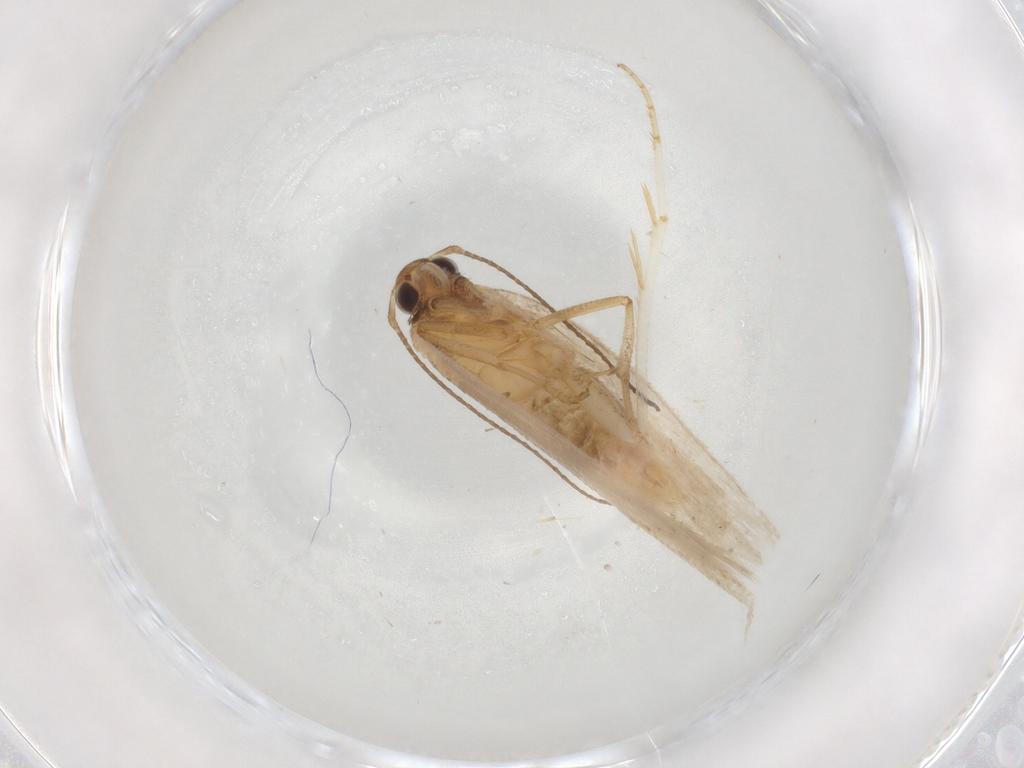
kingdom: Animalia
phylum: Arthropoda
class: Insecta
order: Lepidoptera
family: Gelechiidae
